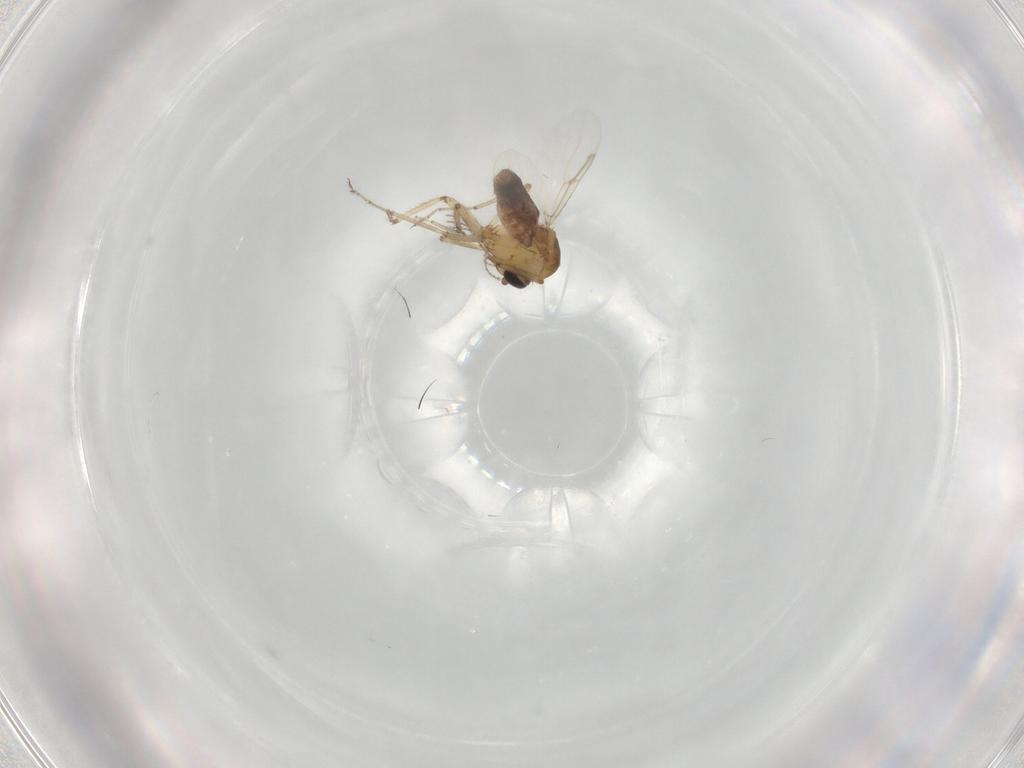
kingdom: Animalia
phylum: Arthropoda
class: Insecta
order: Diptera
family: Ceratopogonidae
